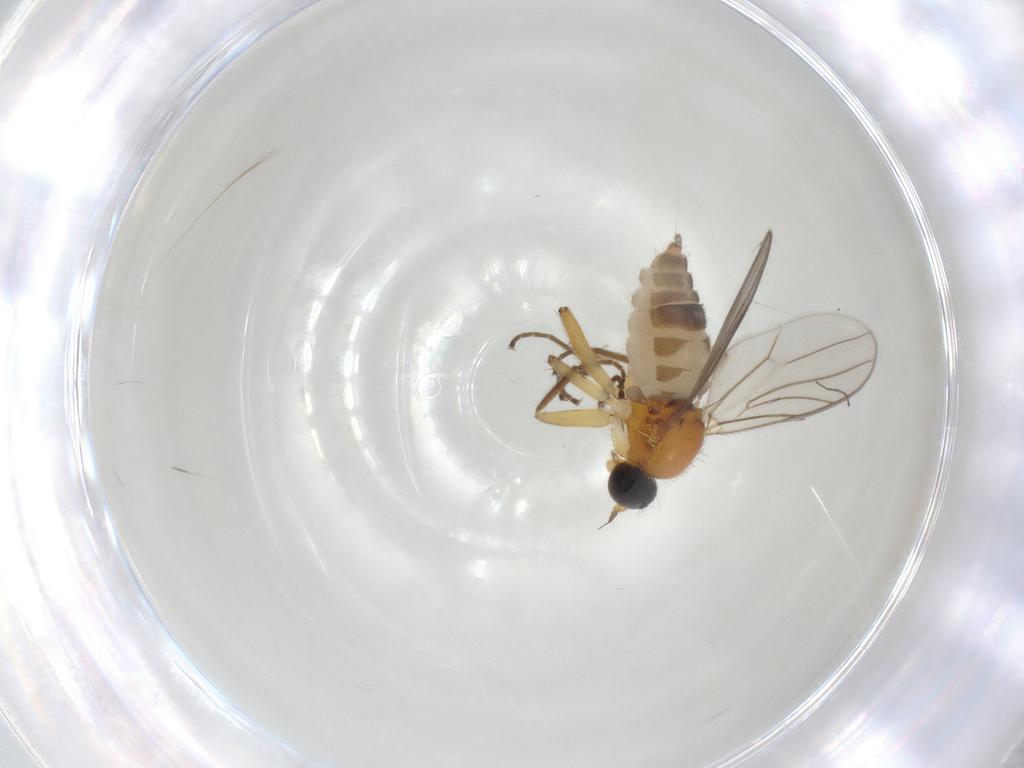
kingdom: Animalia
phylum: Arthropoda
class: Insecta
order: Diptera
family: Hybotidae
